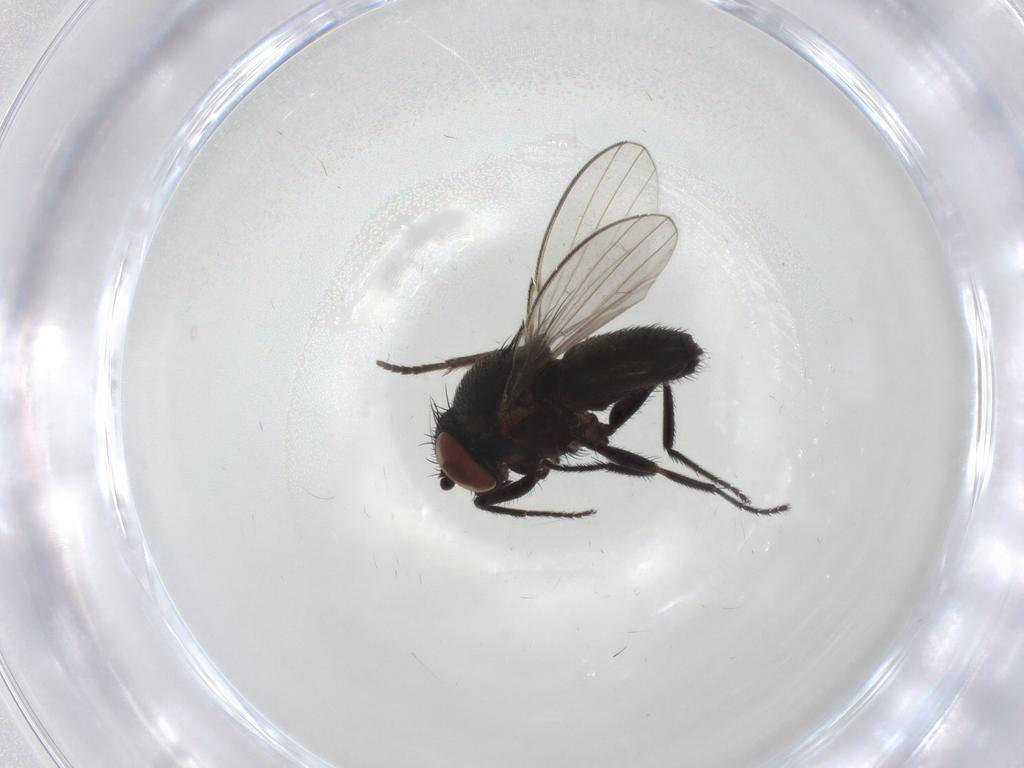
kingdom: Animalia
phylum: Arthropoda
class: Insecta
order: Diptera
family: Milichiidae
